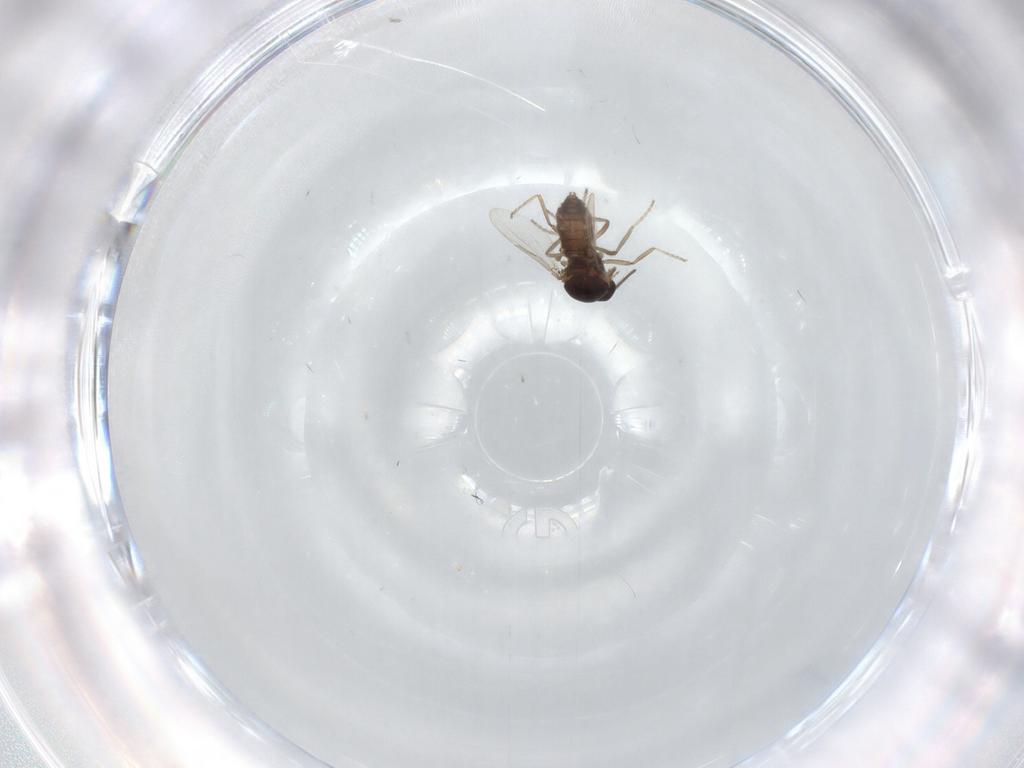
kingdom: Animalia
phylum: Arthropoda
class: Insecta
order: Diptera
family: Ceratopogonidae
